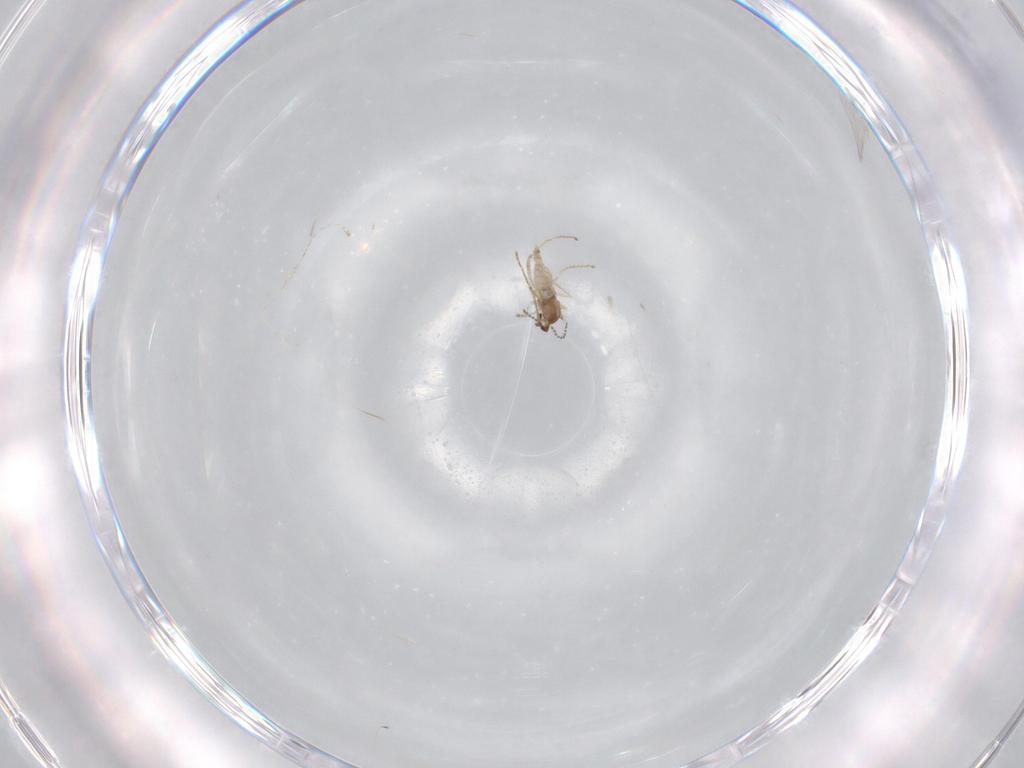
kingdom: Animalia
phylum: Arthropoda
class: Insecta
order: Diptera
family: Cecidomyiidae
